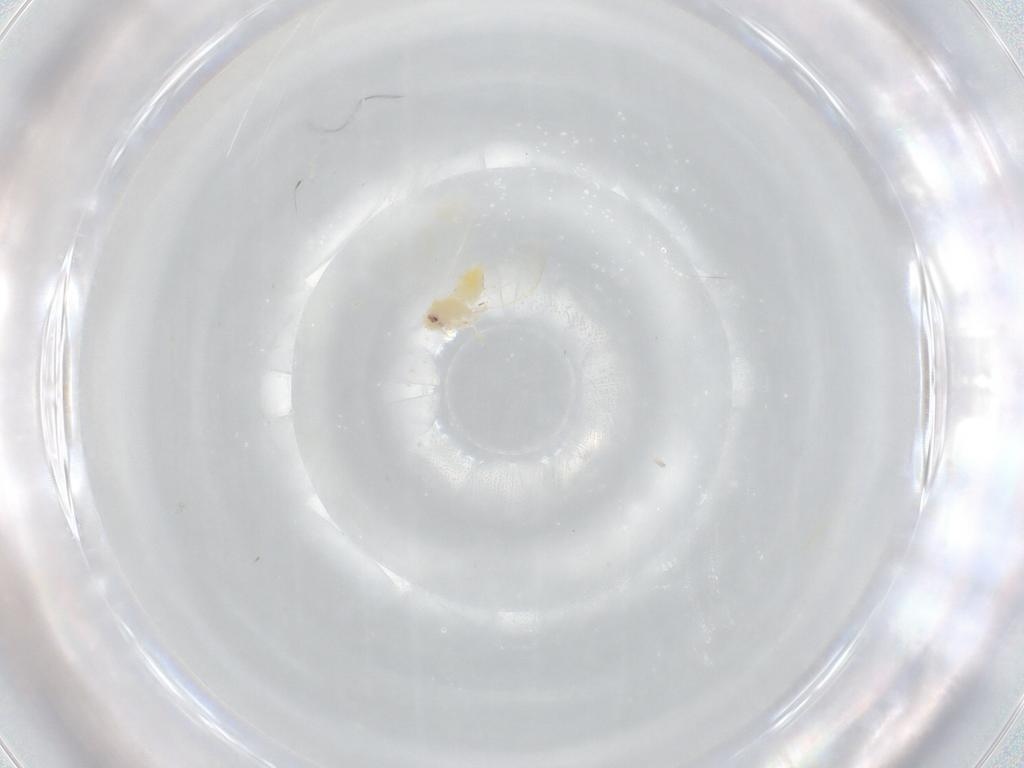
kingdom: Animalia
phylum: Arthropoda
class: Insecta
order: Hemiptera
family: Aleyrodidae
